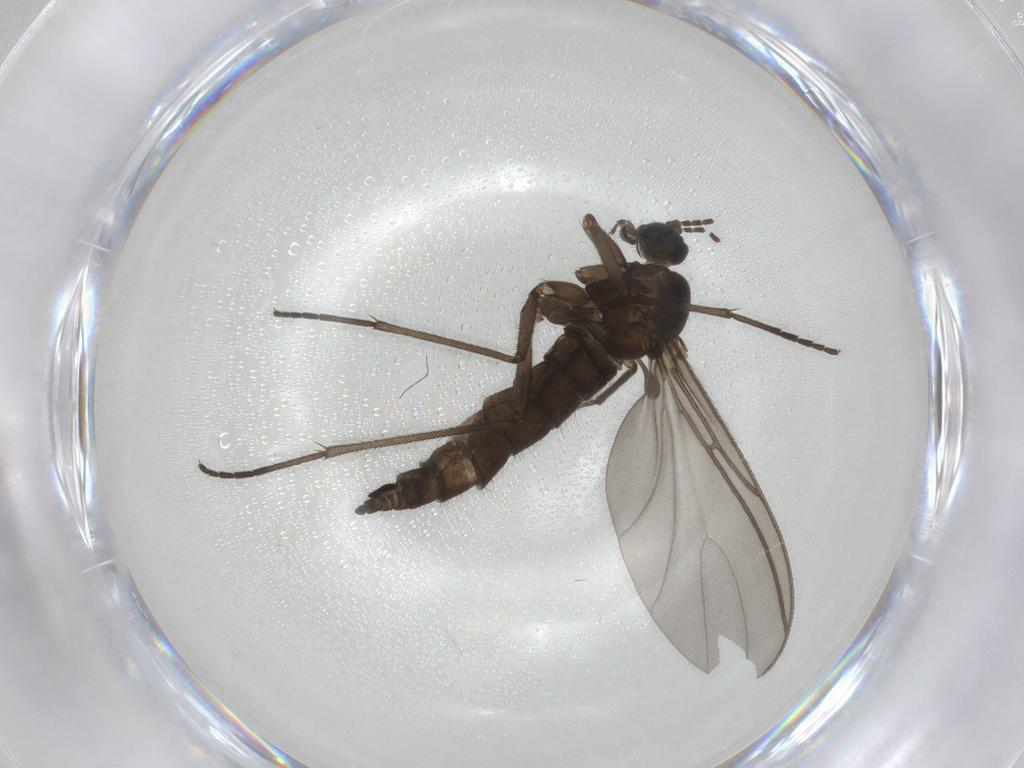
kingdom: Animalia
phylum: Arthropoda
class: Insecta
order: Diptera
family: Sciaridae
